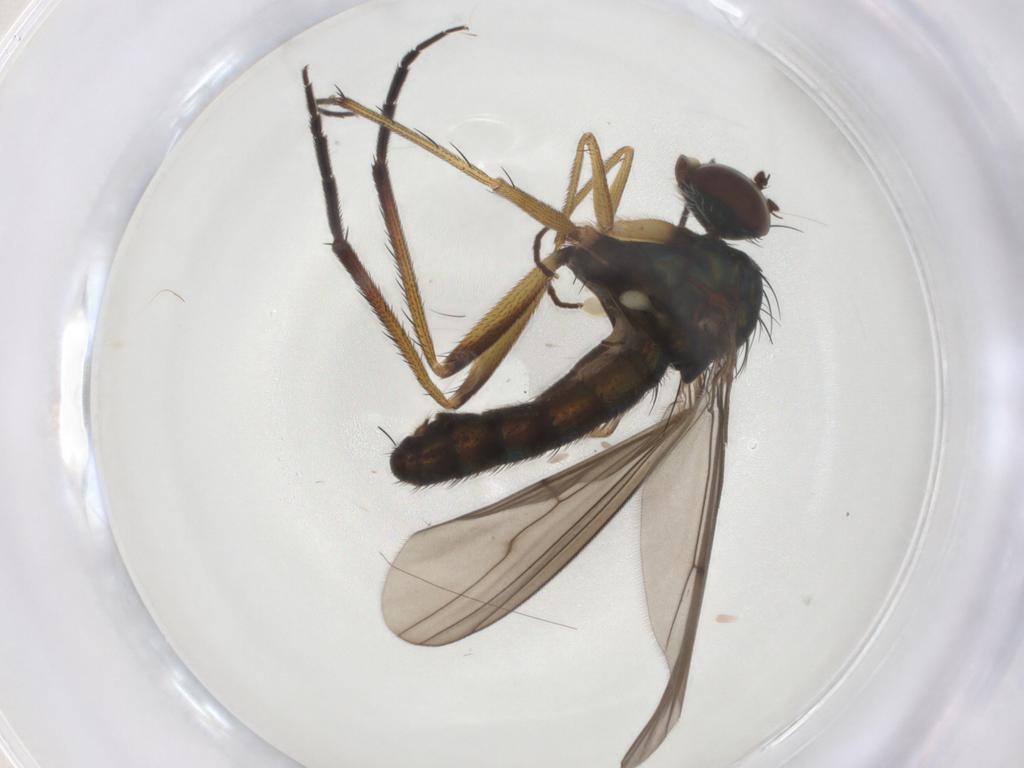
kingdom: Animalia
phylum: Arthropoda
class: Insecta
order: Diptera
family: Dolichopodidae
